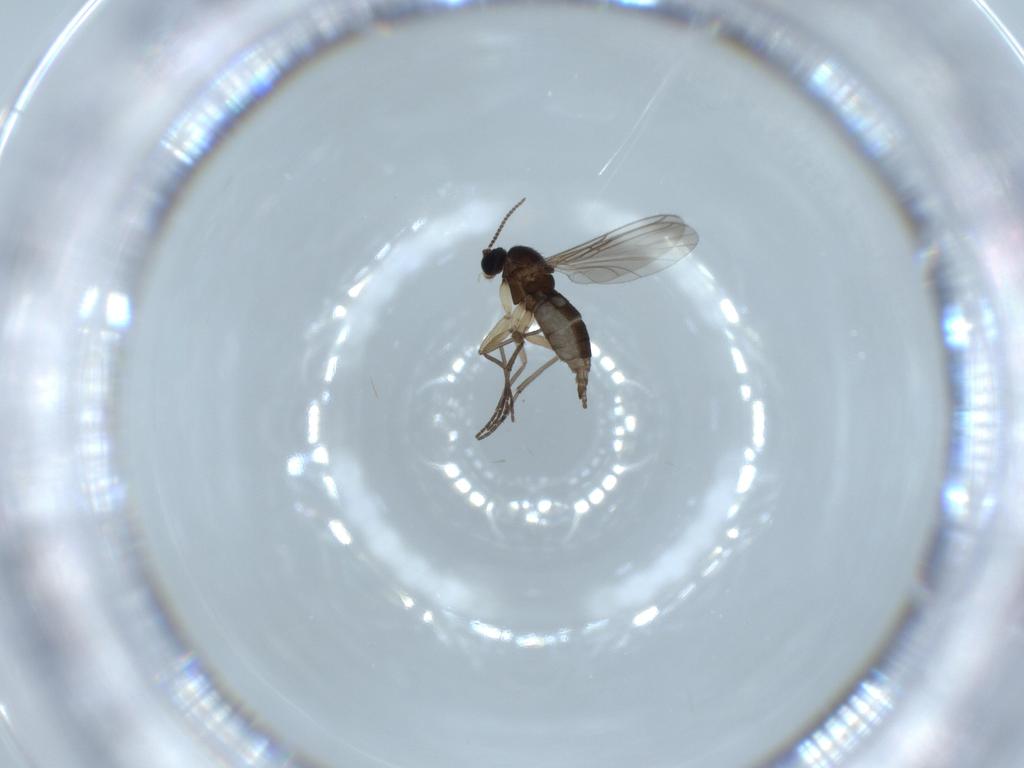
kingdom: Animalia
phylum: Arthropoda
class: Insecta
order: Diptera
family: Sciaridae
